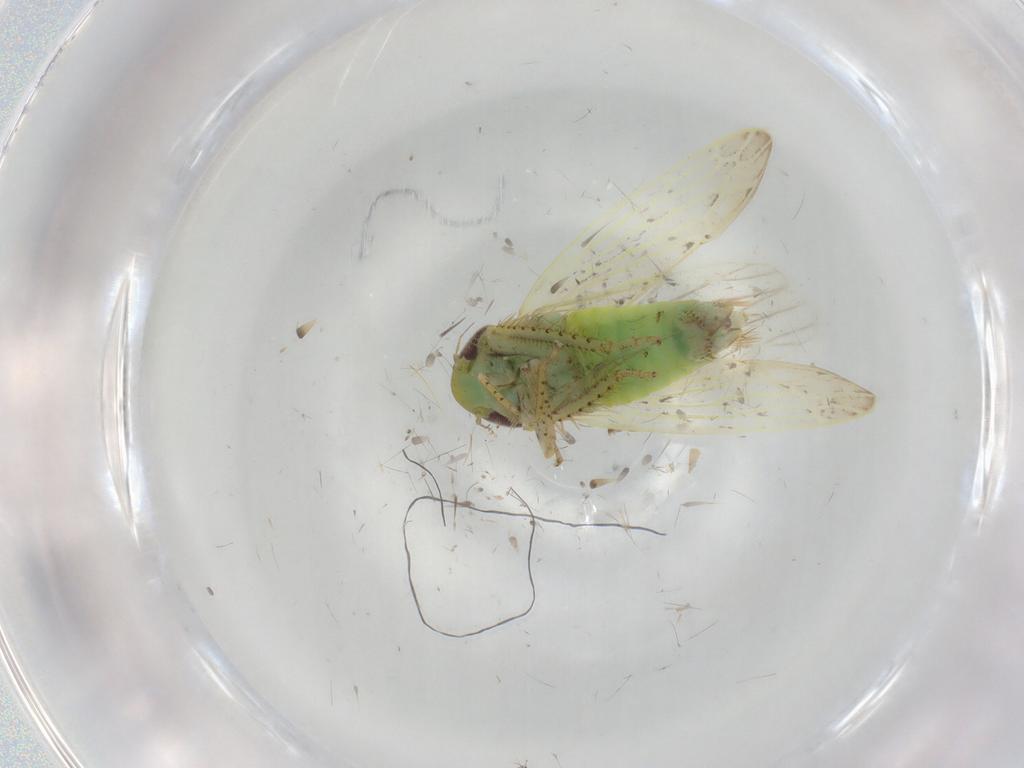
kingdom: Animalia
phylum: Arthropoda
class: Insecta
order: Hemiptera
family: Cicadellidae
